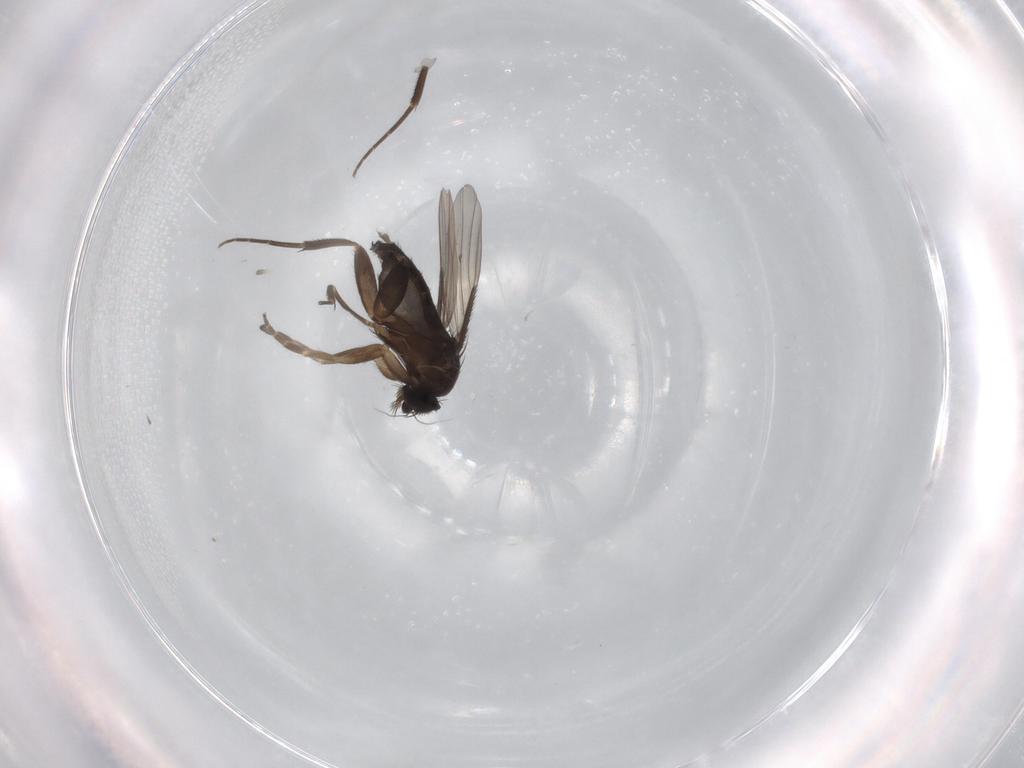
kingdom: Animalia
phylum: Arthropoda
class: Insecta
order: Diptera
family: Phoridae
